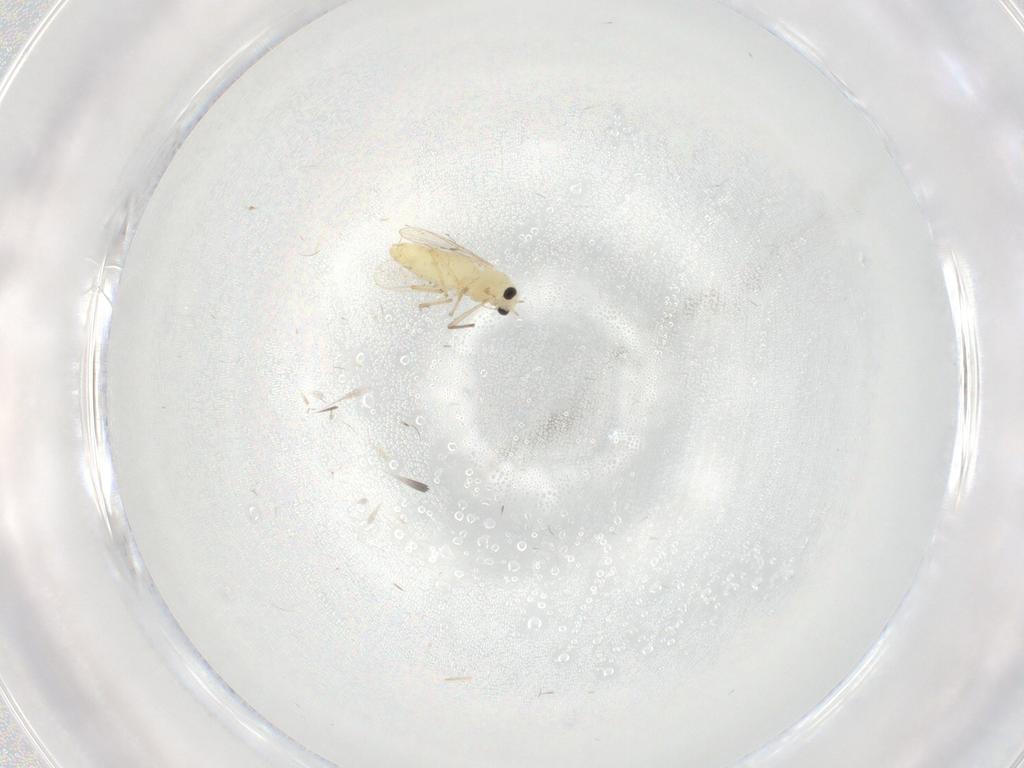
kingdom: Animalia
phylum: Arthropoda
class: Insecta
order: Diptera
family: Chironomidae
